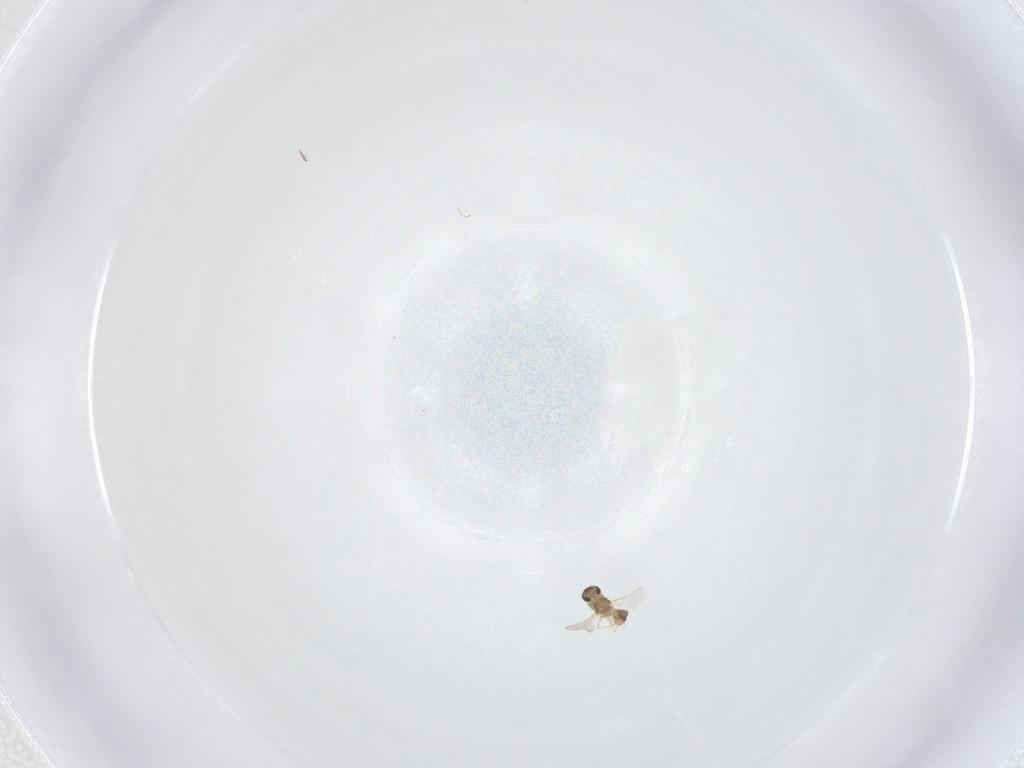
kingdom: Animalia
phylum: Arthropoda
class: Insecta
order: Diptera
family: Chironomidae
